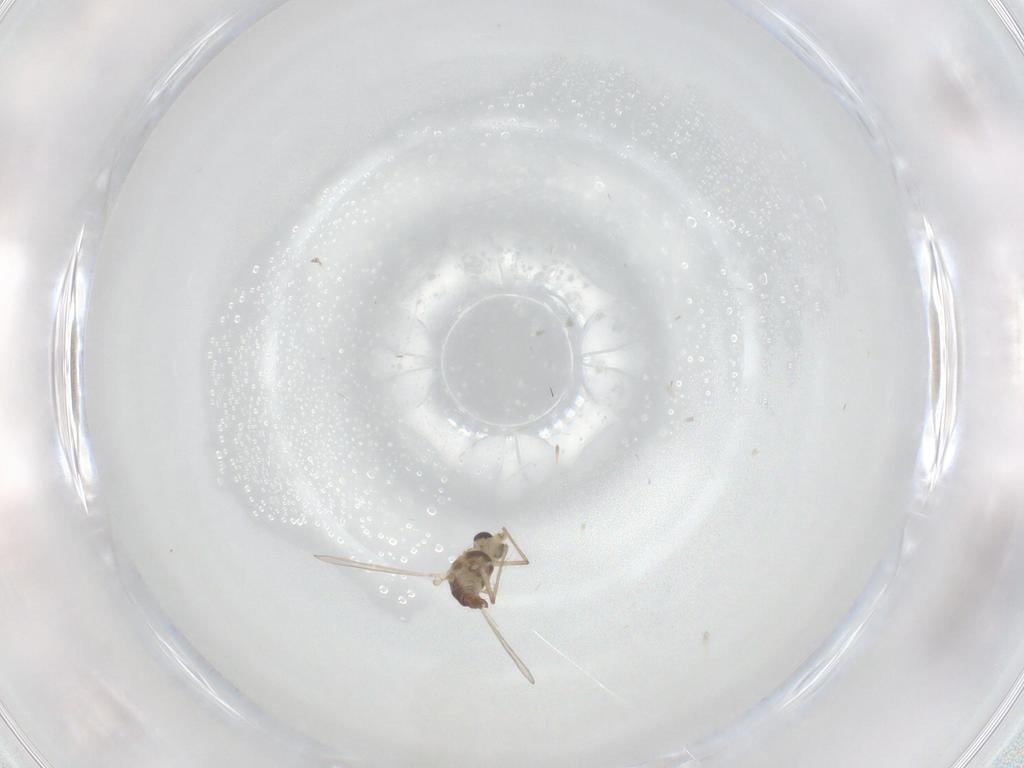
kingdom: Animalia
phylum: Arthropoda
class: Insecta
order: Diptera
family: Chironomidae
